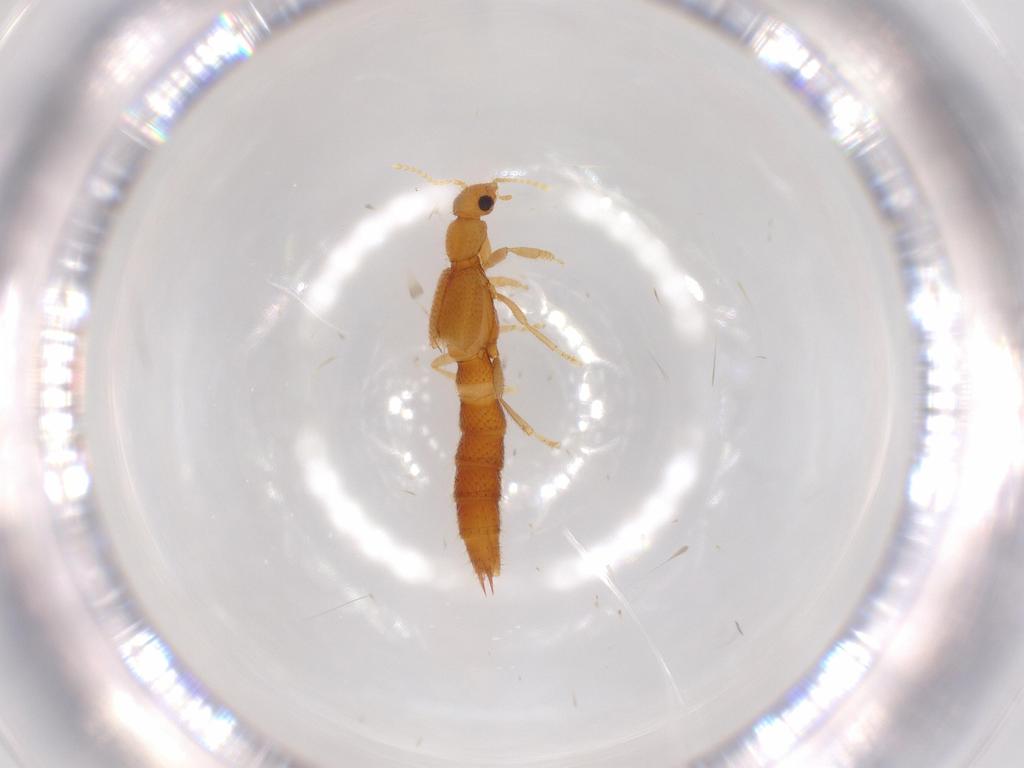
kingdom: Animalia
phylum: Arthropoda
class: Insecta
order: Coleoptera
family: Staphylinidae
